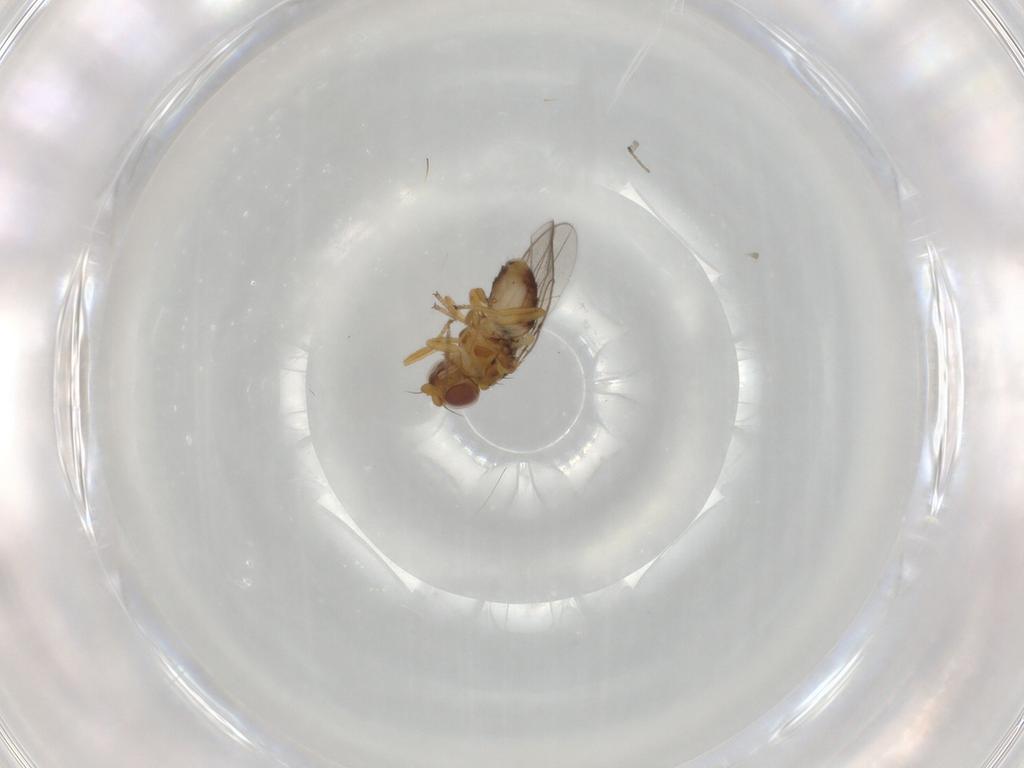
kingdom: Animalia
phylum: Arthropoda
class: Insecta
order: Diptera
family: Chloropidae
